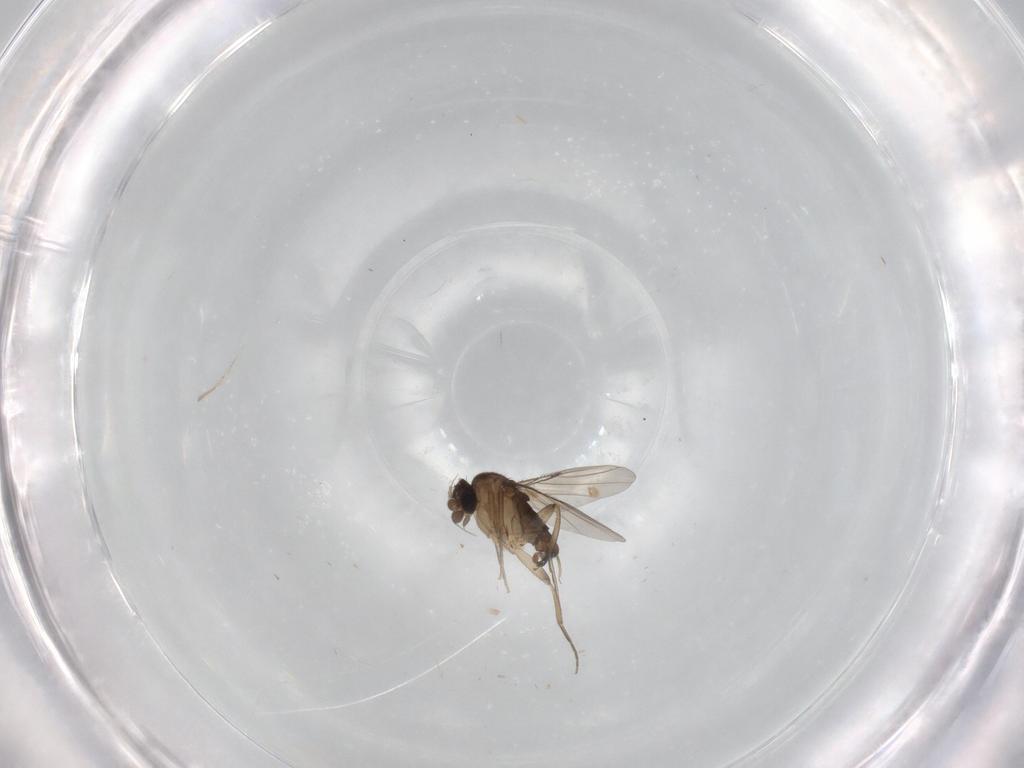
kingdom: Animalia
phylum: Arthropoda
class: Insecta
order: Diptera
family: Phoridae
